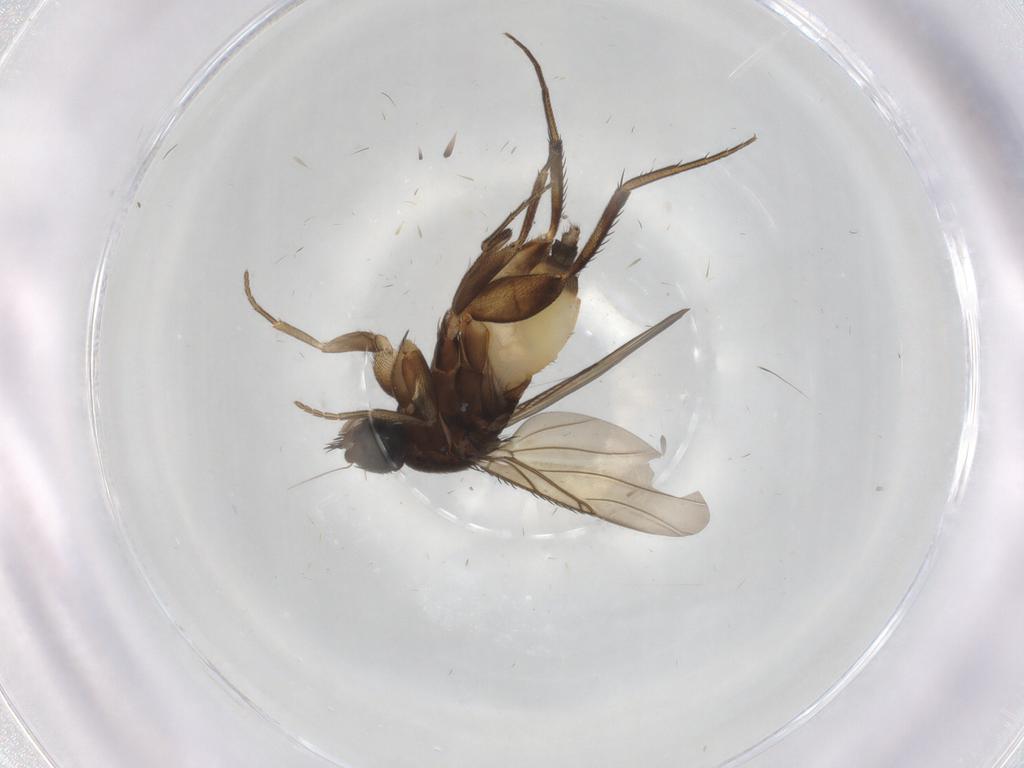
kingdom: Animalia
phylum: Arthropoda
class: Insecta
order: Diptera
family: Ceratopogonidae
